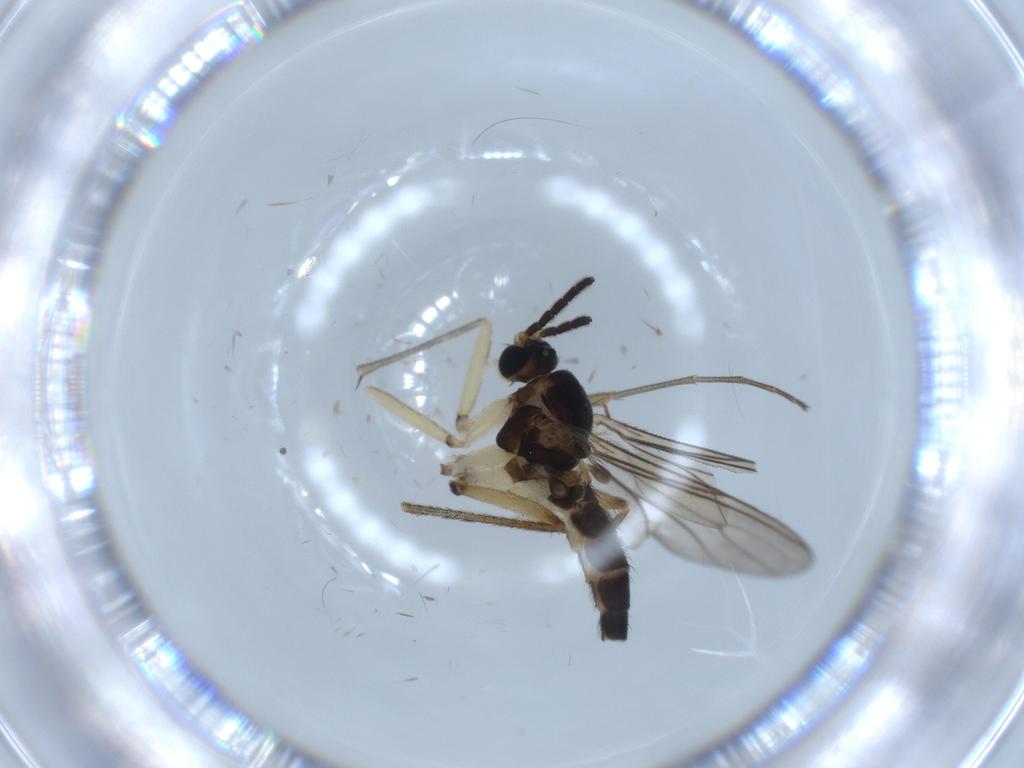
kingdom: Animalia
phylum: Arthropoda
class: Insecta
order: Diptera
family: Sciaridae
